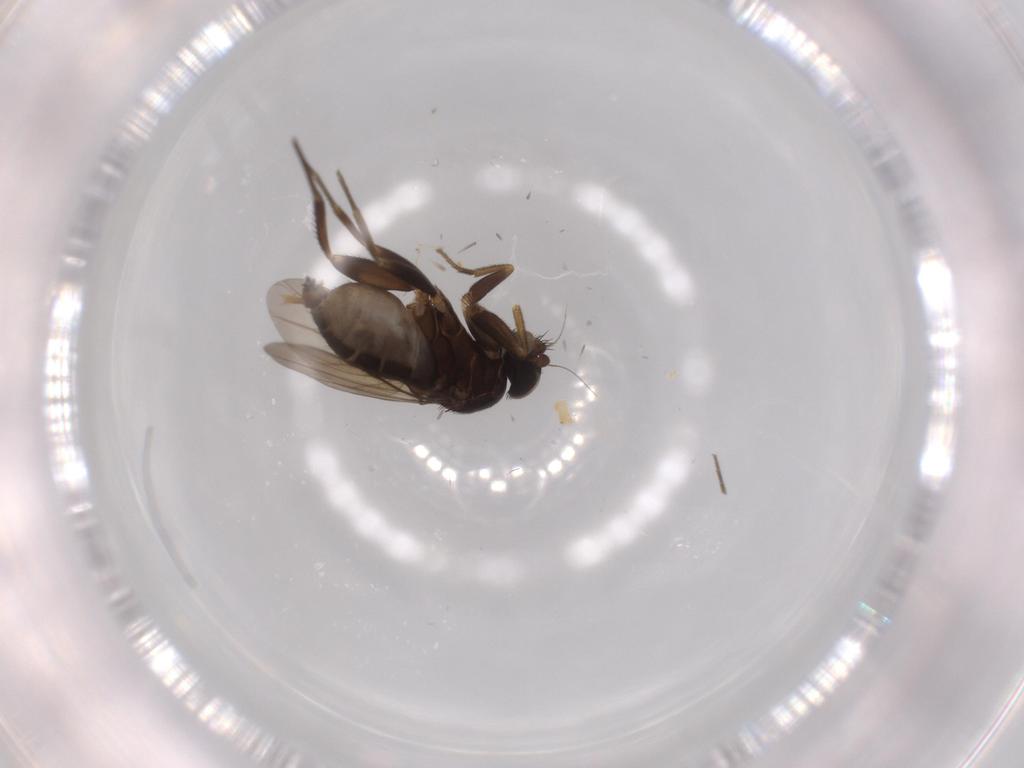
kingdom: Animalia
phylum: Arthropoda
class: Insecta
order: Diptera
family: Phoridae
